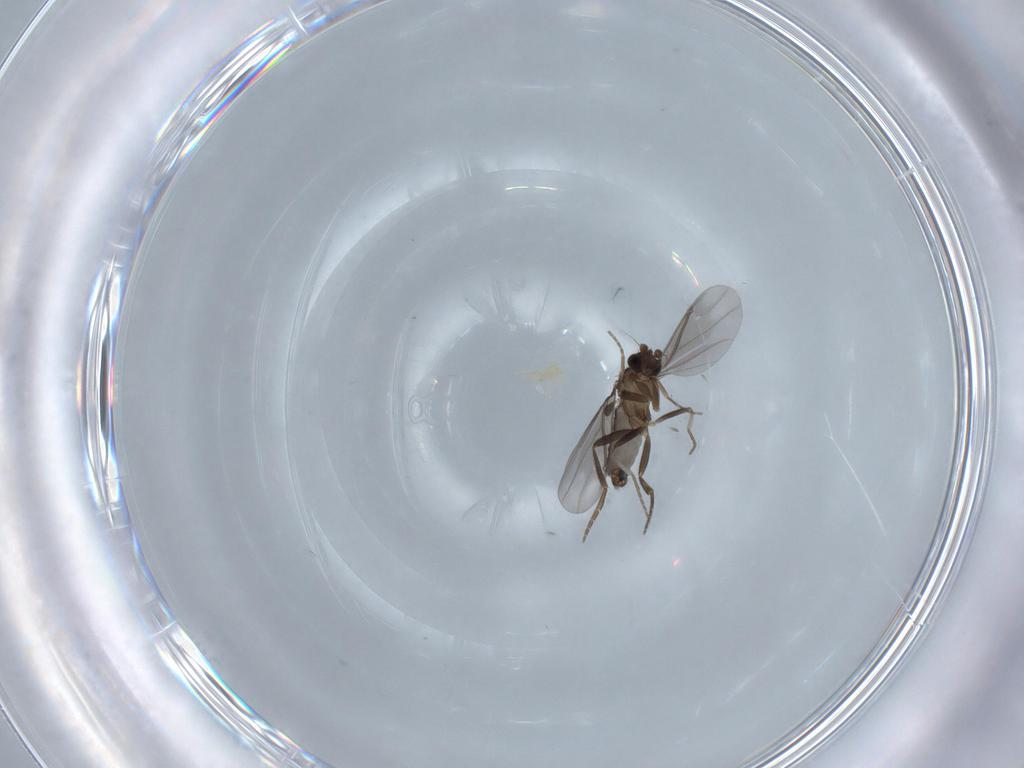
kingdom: Animalia
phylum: Arthropoda
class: Insecta
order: Diptera
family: Phoridae
